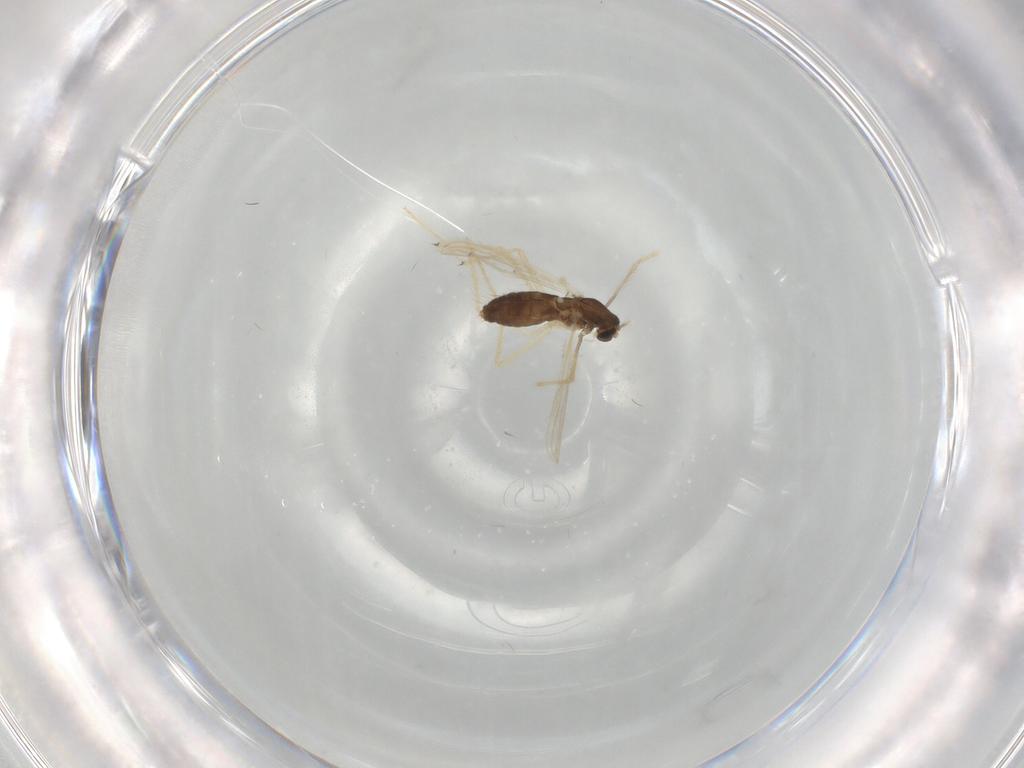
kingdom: Animalia
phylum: Arthropoda
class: Insecta
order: Diptera
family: Chironomidae
